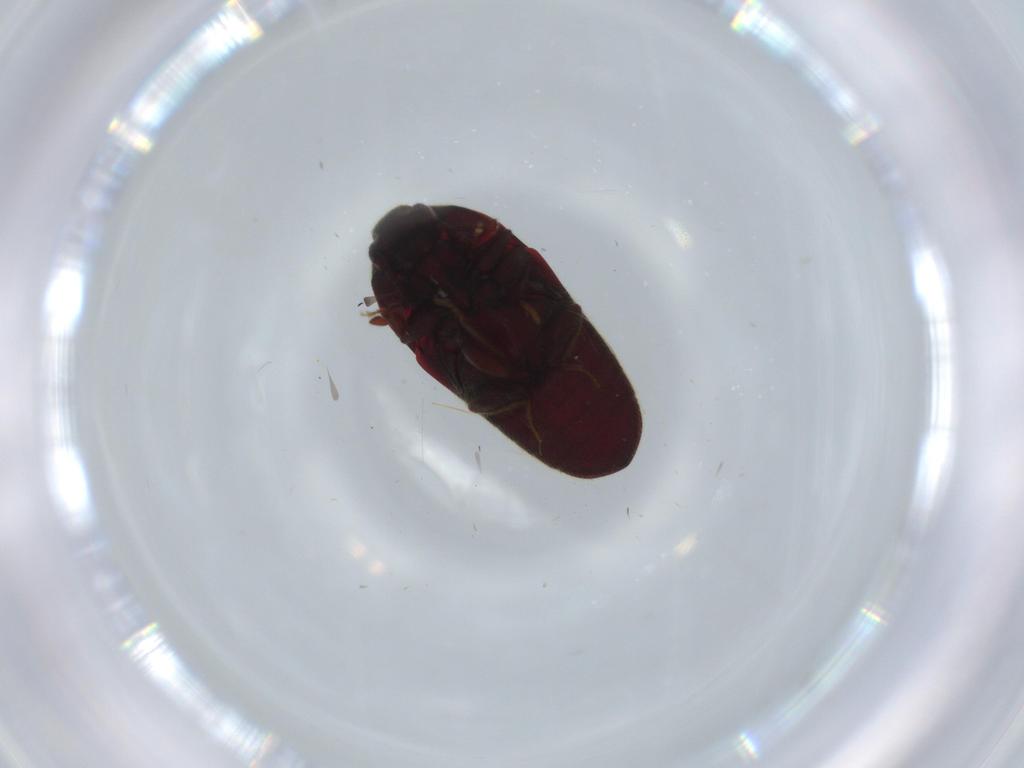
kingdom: Animalia
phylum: Arthropoda
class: Insecta
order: Coleoptera
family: Throscidae
